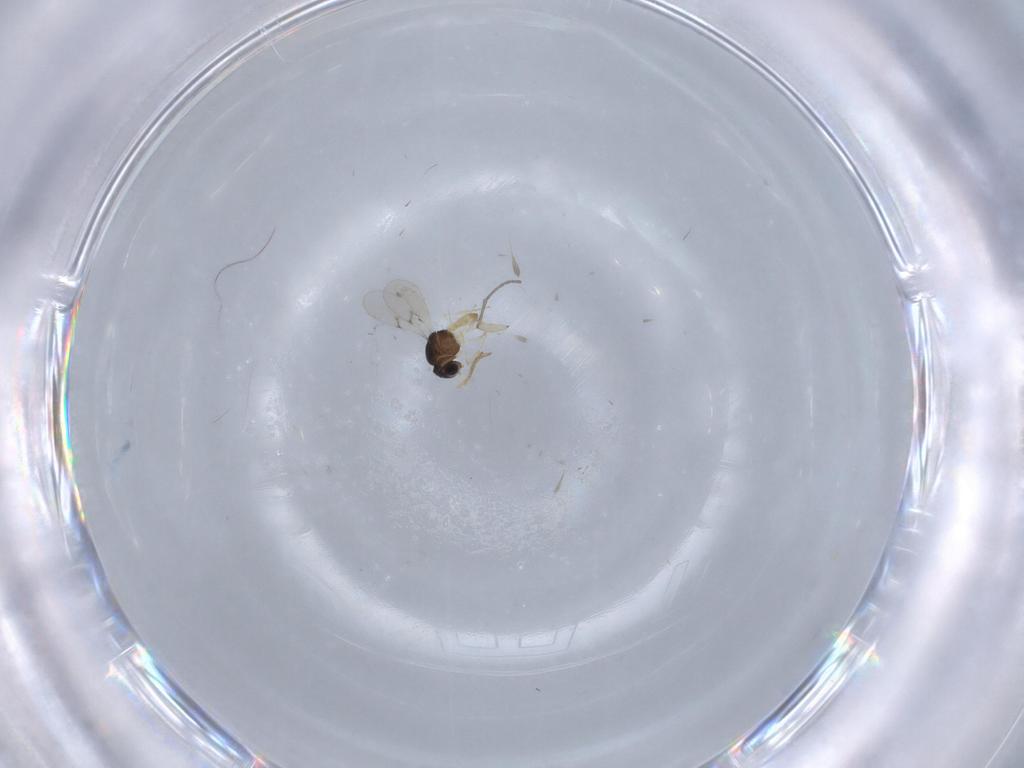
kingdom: Animalia
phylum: Arthropoda
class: Insecta
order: Hymenoptera
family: Scelionidae
